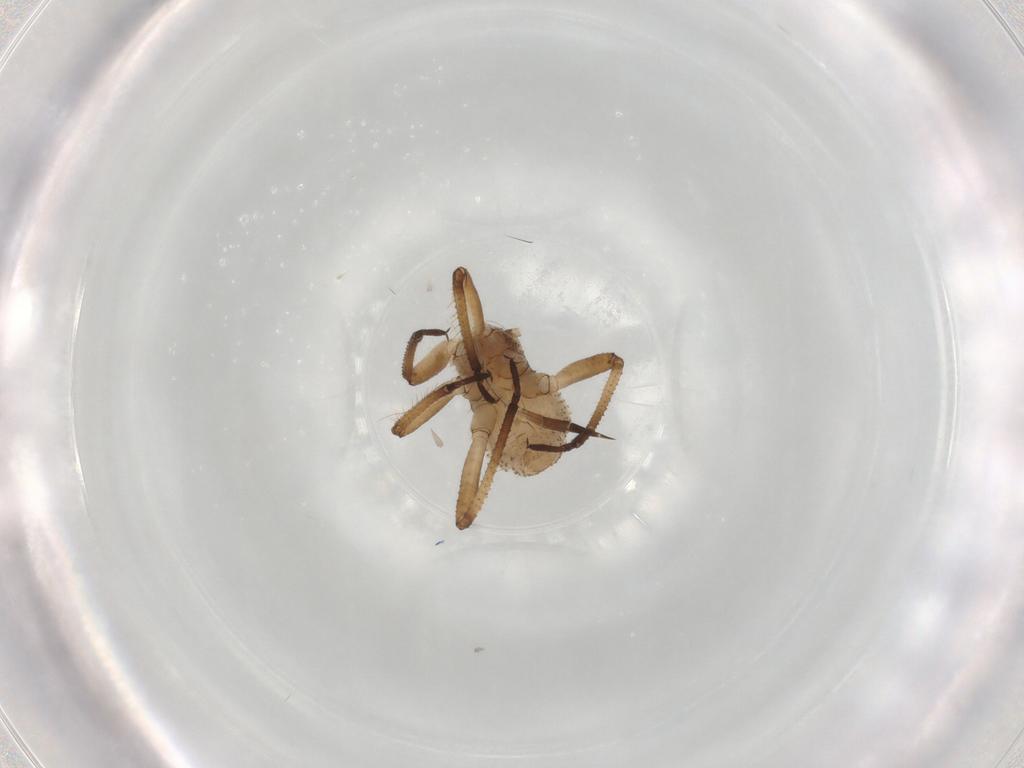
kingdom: Animalia
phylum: Arthropoda
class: Insecta
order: Hemiptera
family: Aphididae
